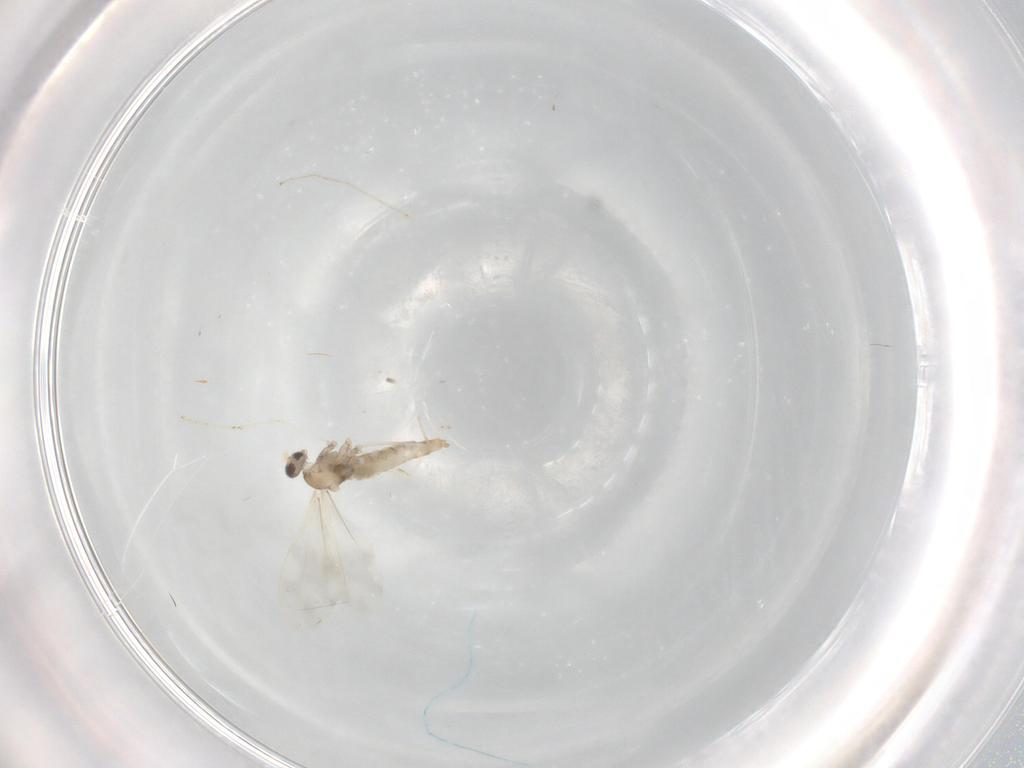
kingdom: Animalia
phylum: Arthropoda
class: Insecta
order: Diptera
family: Cecidomyiidae
